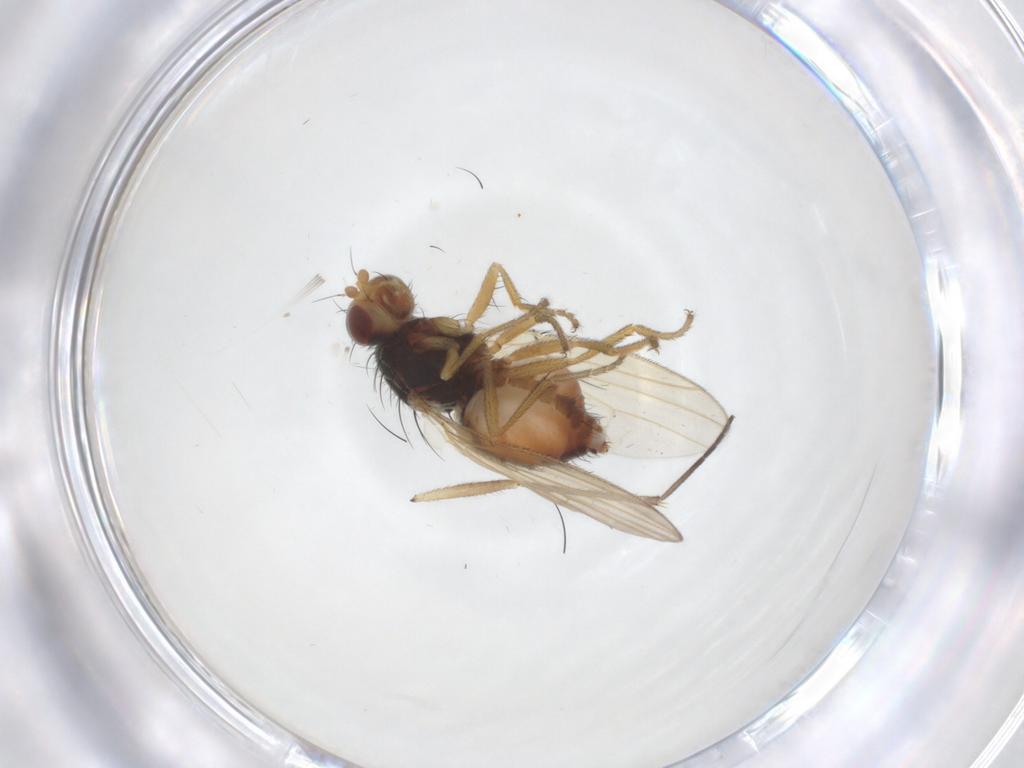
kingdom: Animalia
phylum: Arthropoda
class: Insecta
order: Diptera
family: Heleomyzidae
